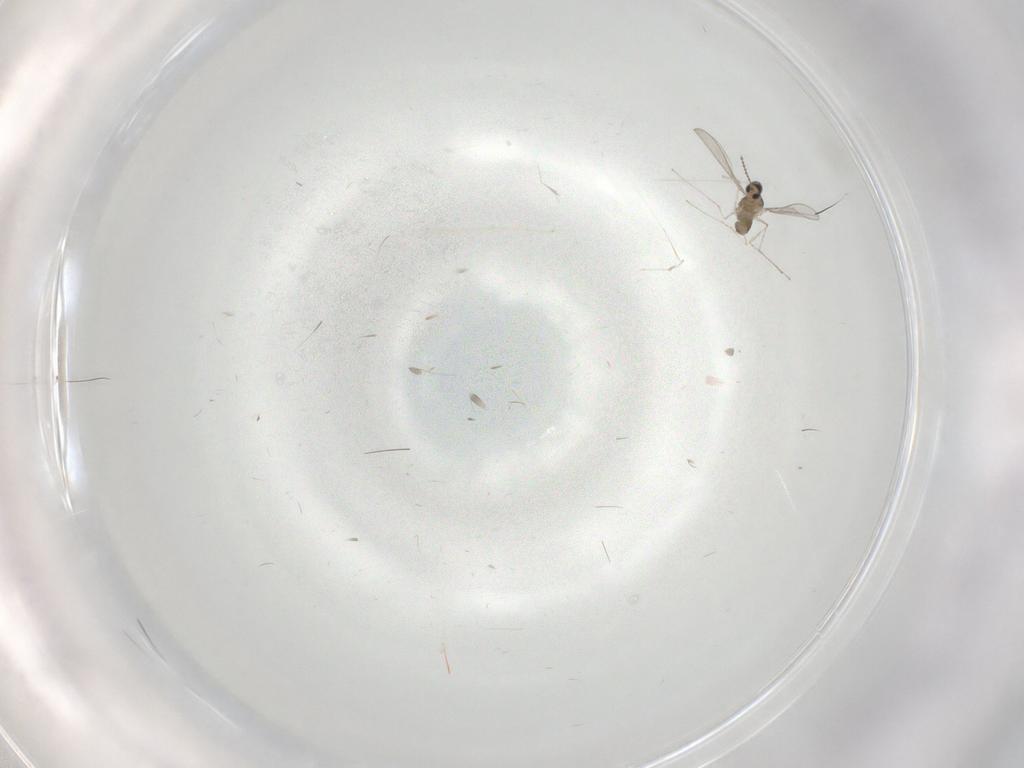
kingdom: Animalia
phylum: Arthropoda
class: Insecta
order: Diptera
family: Cecidomyiidae
